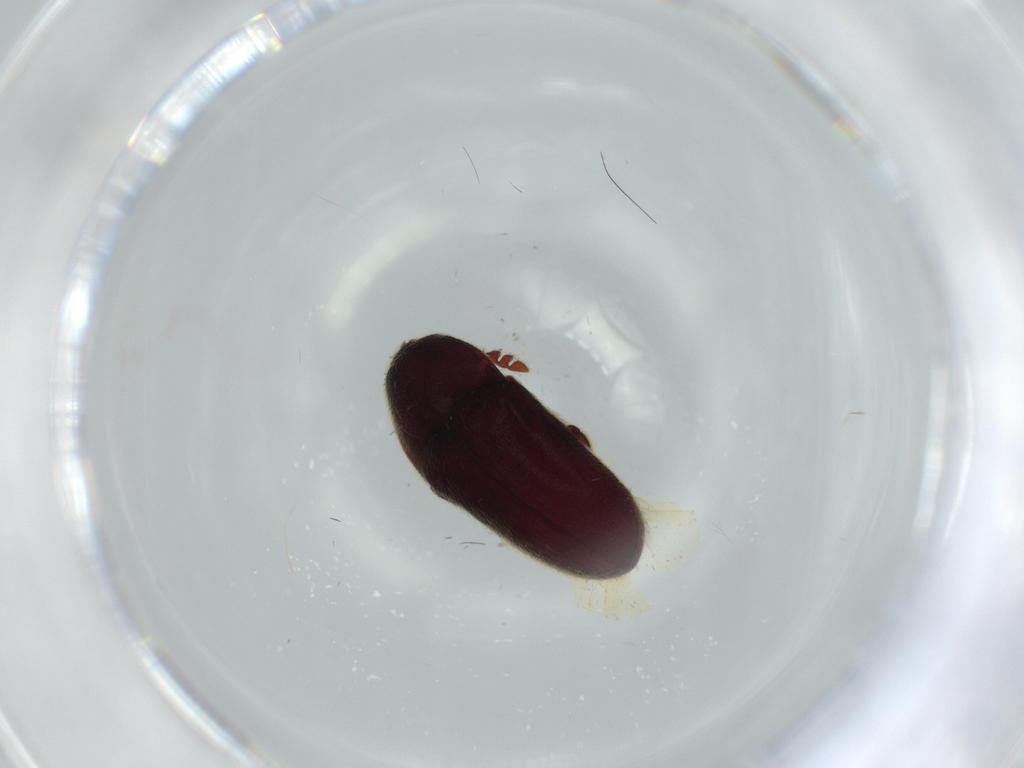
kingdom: Animalia
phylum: Arthropoda
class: Insecta
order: Coleoptera
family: Throscidae
